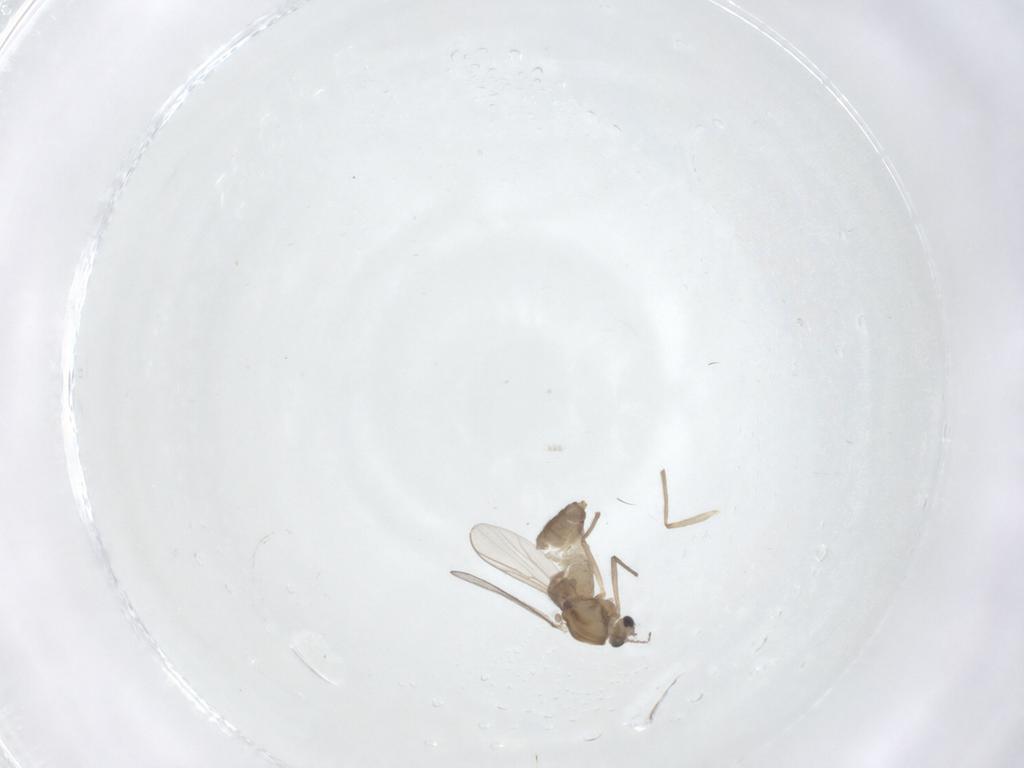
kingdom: Animalia
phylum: Arthropoda
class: Insecta
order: Diptera
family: Chironomidae
